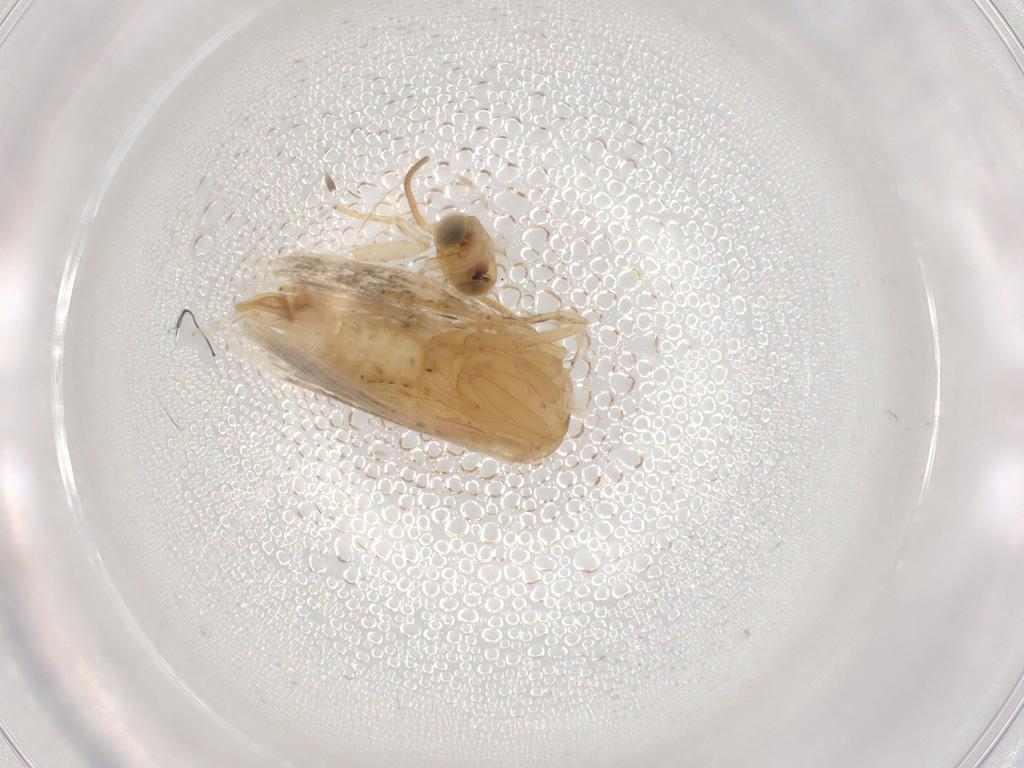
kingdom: Animalia
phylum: Arthropoda
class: Insecta
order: Lepidoptera
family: Tortricidae
